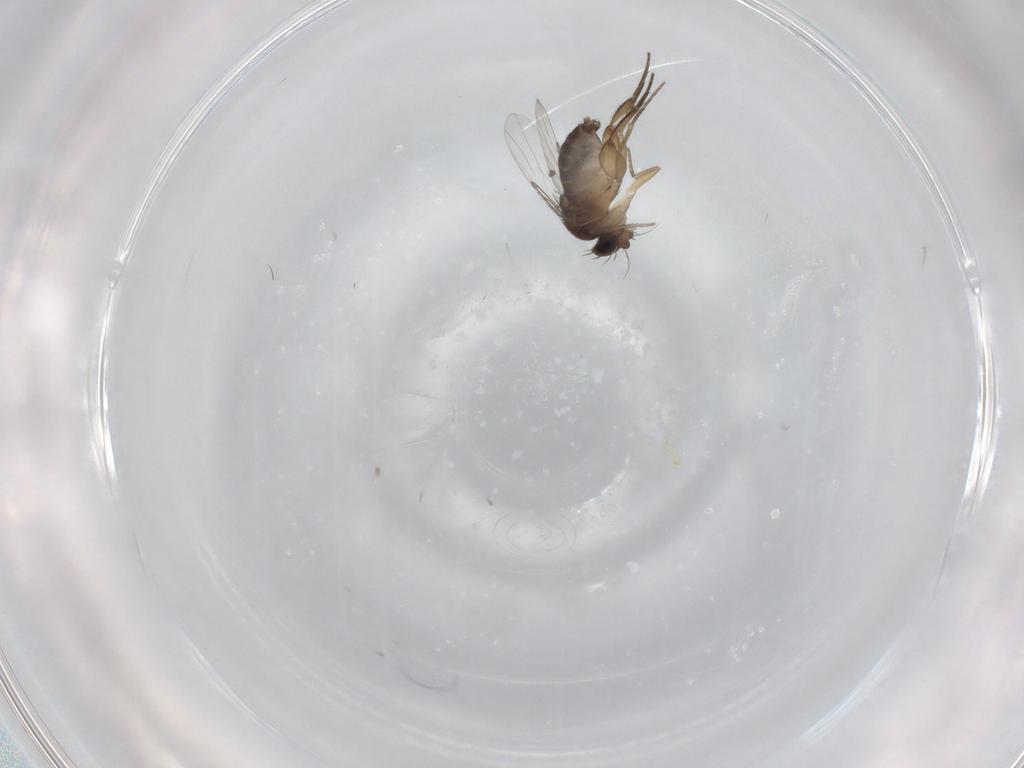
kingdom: Animalia
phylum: Arthropoda
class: Insecta
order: Diptera
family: Phoridae
